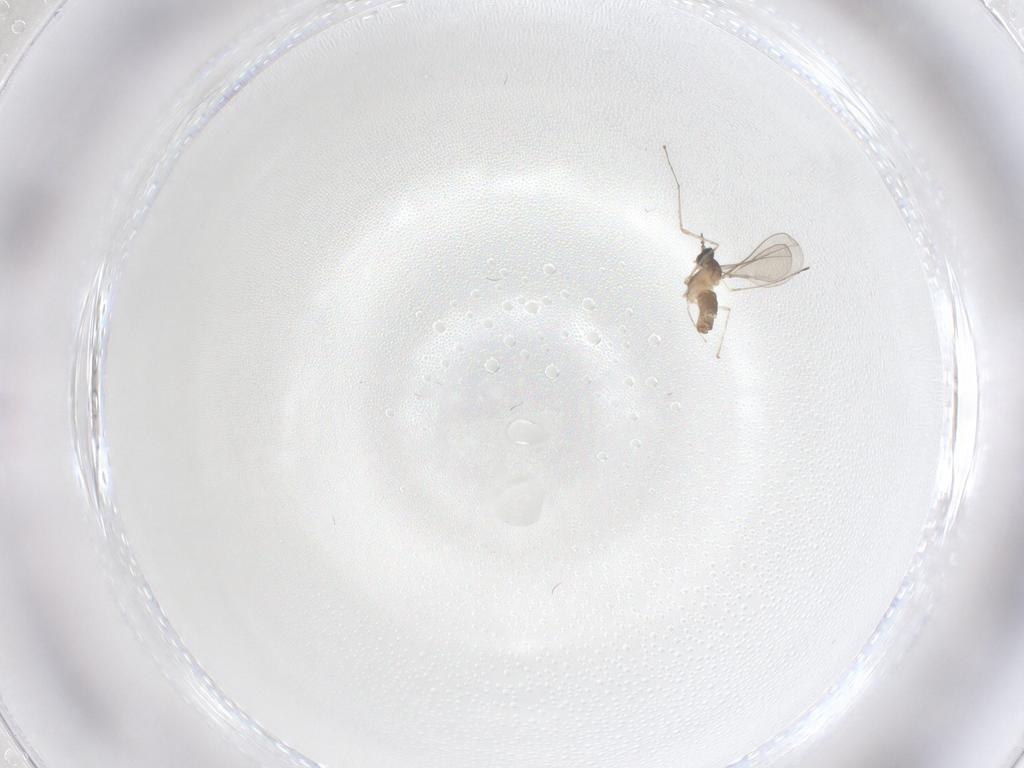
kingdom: Animalia
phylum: Arthropoda
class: Insecta
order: Diptera
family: Cecidomyiidae
